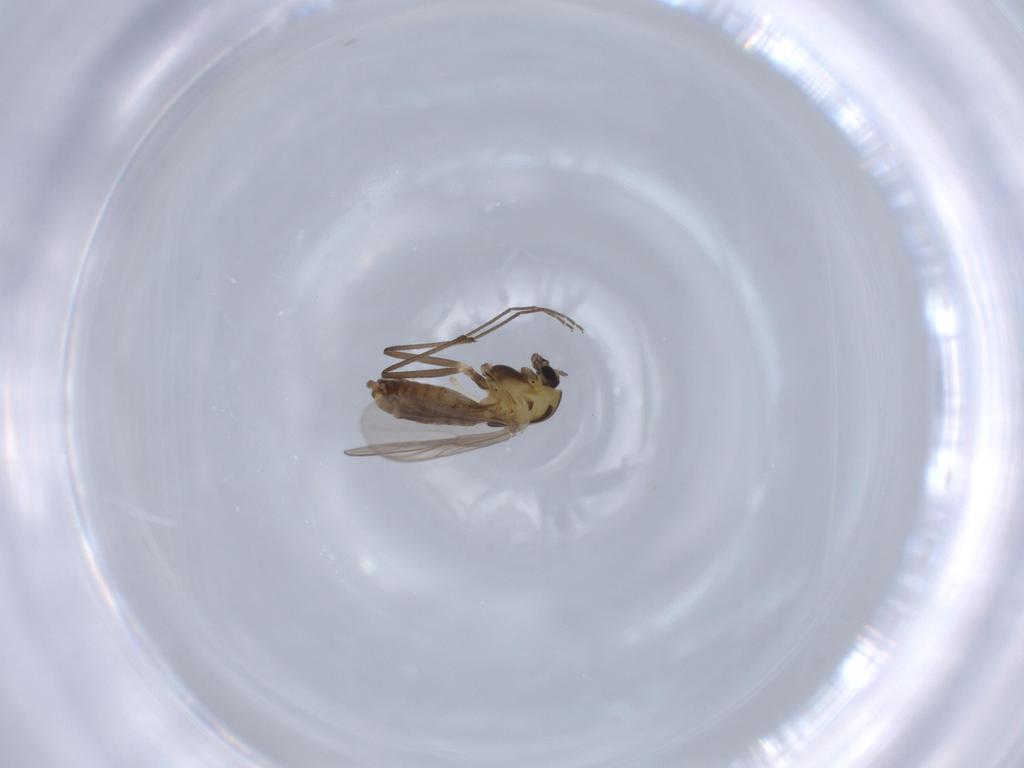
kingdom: Animalia
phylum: Arthropoda
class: Insecta
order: Diptera
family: Chironomidae
